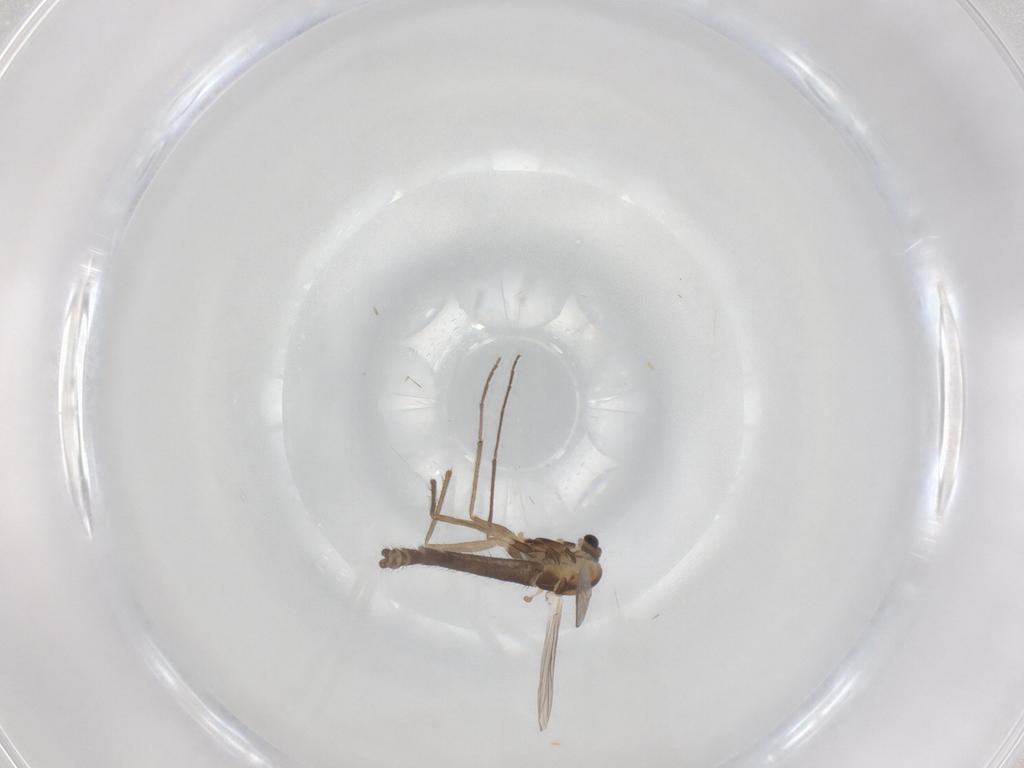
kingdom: Animalia
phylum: Arthropoda
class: Insecta
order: Diptera
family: Chironomidae
